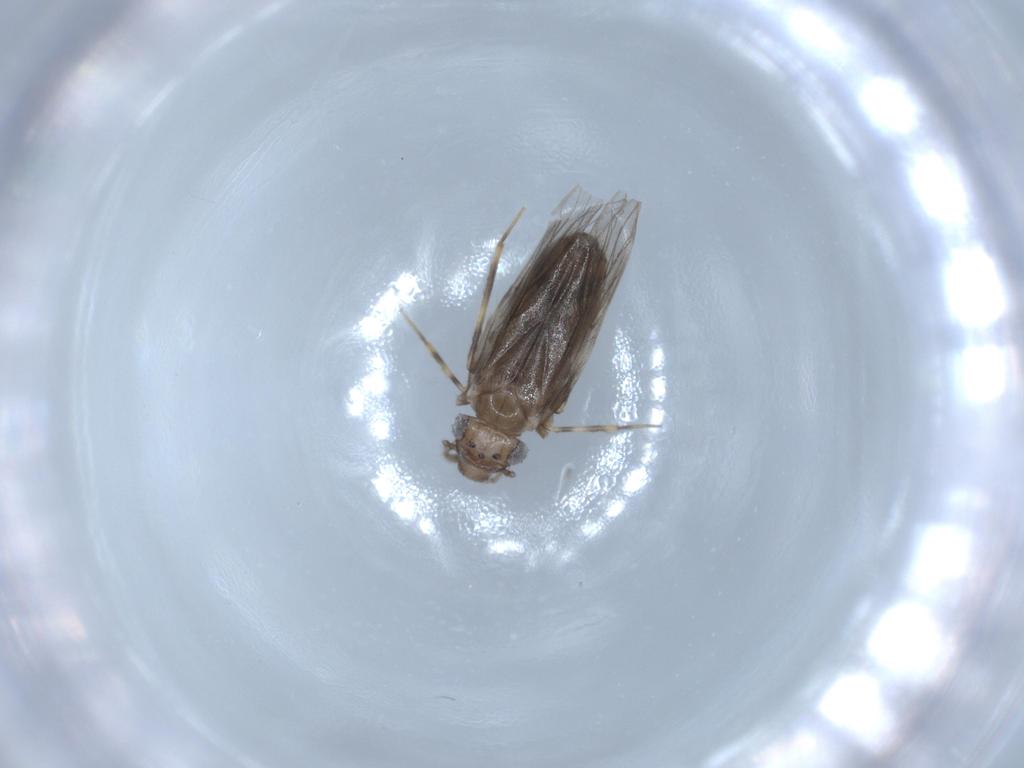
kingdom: Animalia
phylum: Arthropoda
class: Insecta
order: Psocodea
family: Lepidopsocidae
